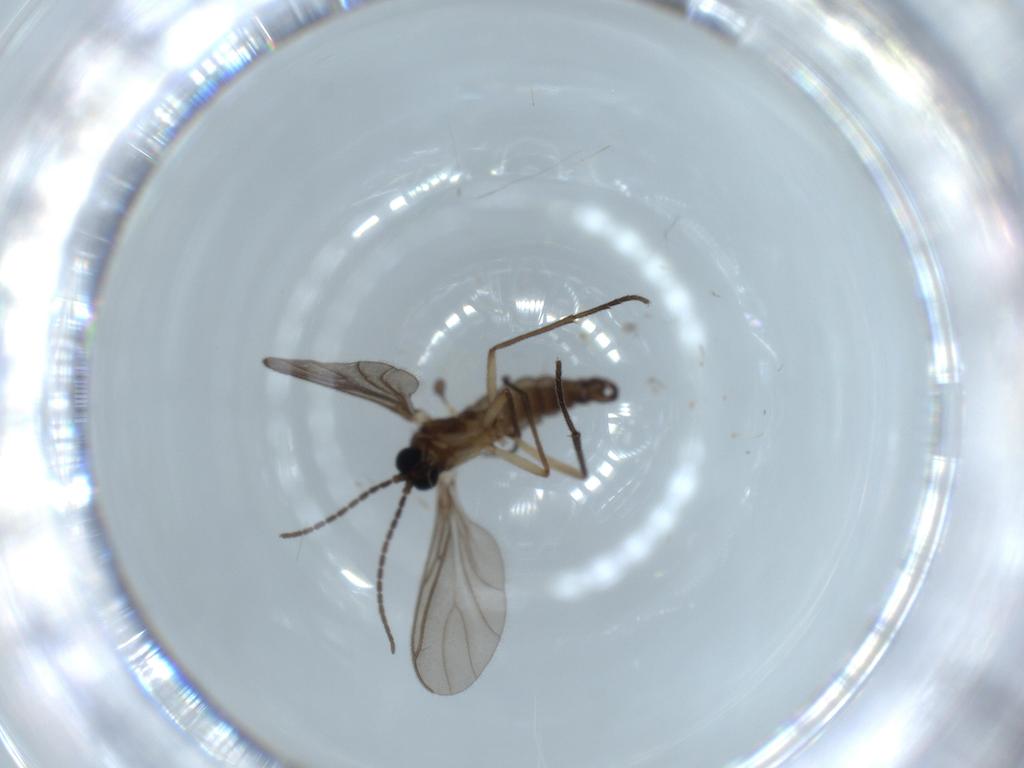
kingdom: Animalia
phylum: Arthropoda
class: Insecta
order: Diptera
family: Sciaridae
